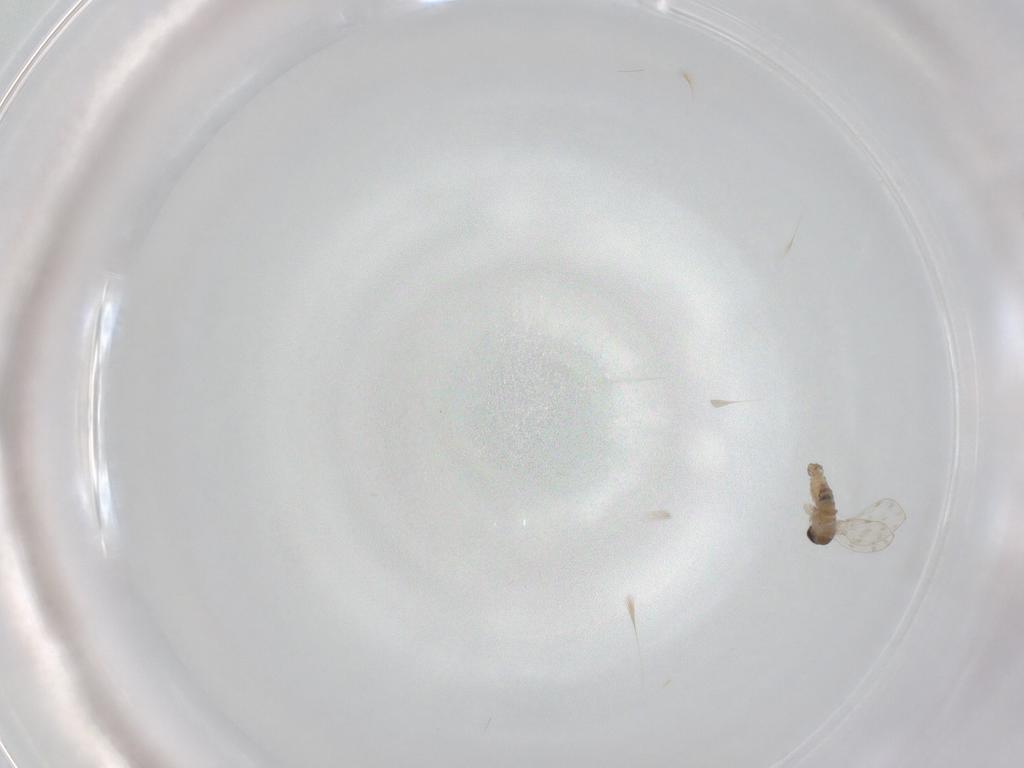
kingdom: Animalia
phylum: Arthropoda
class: Insecta
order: Diptera
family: Psychodidae
